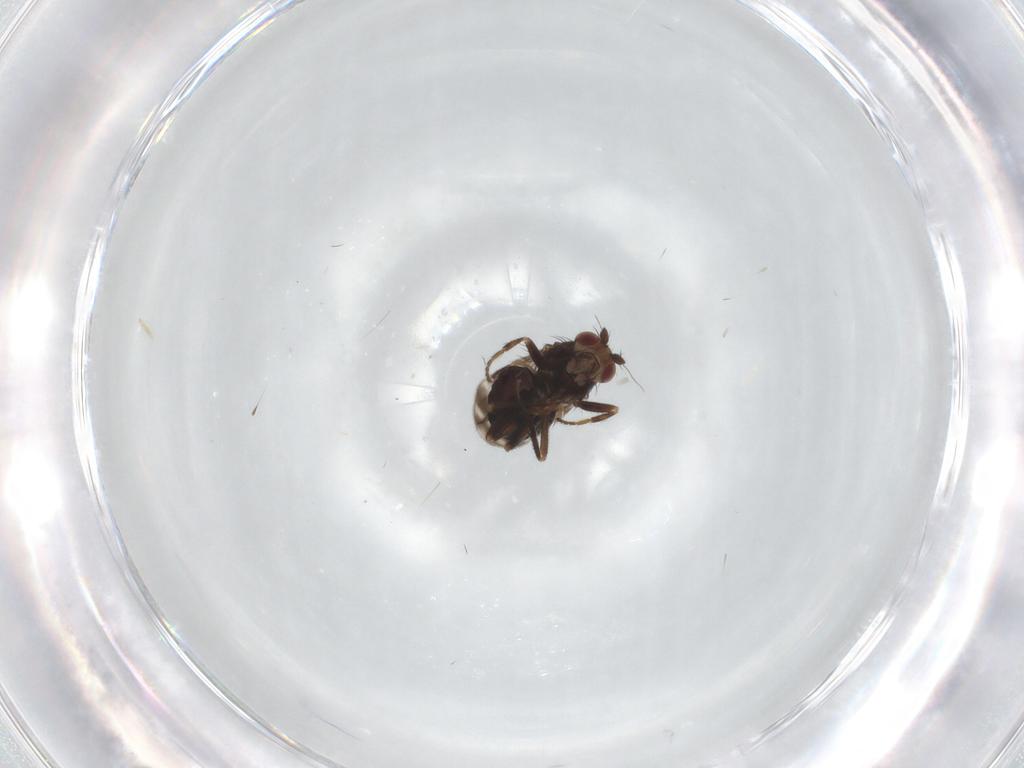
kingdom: Animalia
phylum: Arthropoda
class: Insecta
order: Diptera
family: Sphaeroceridae
